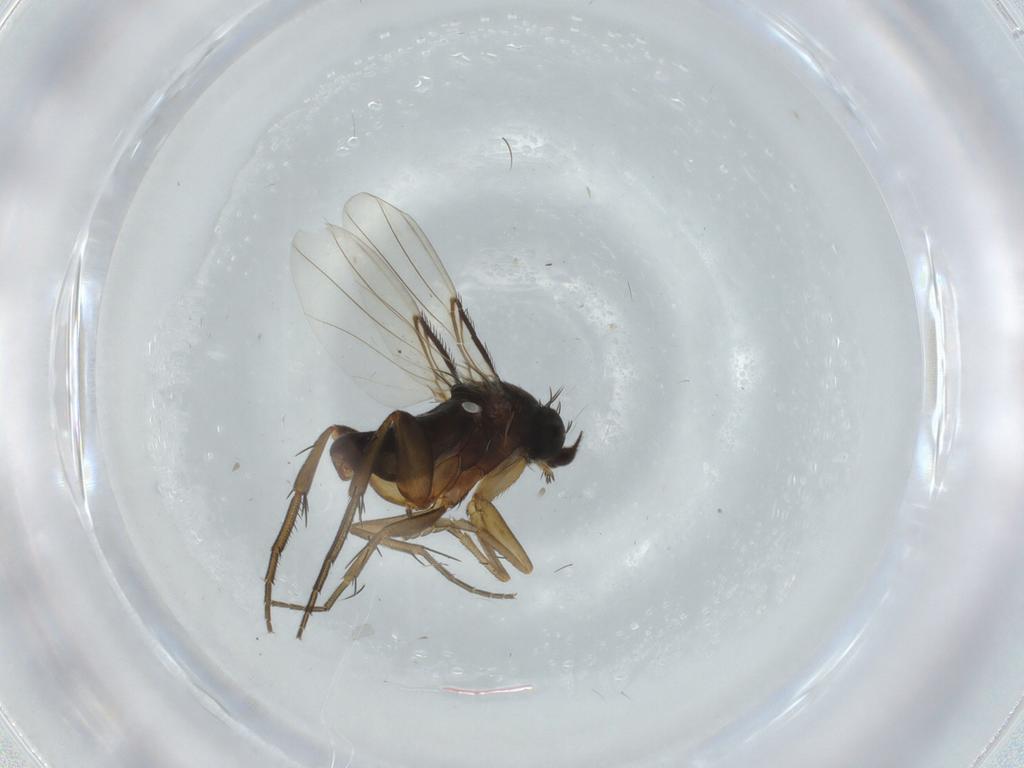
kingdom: Animalia
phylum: Arthropoda
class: Insecta
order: Diptera
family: Phoridae
